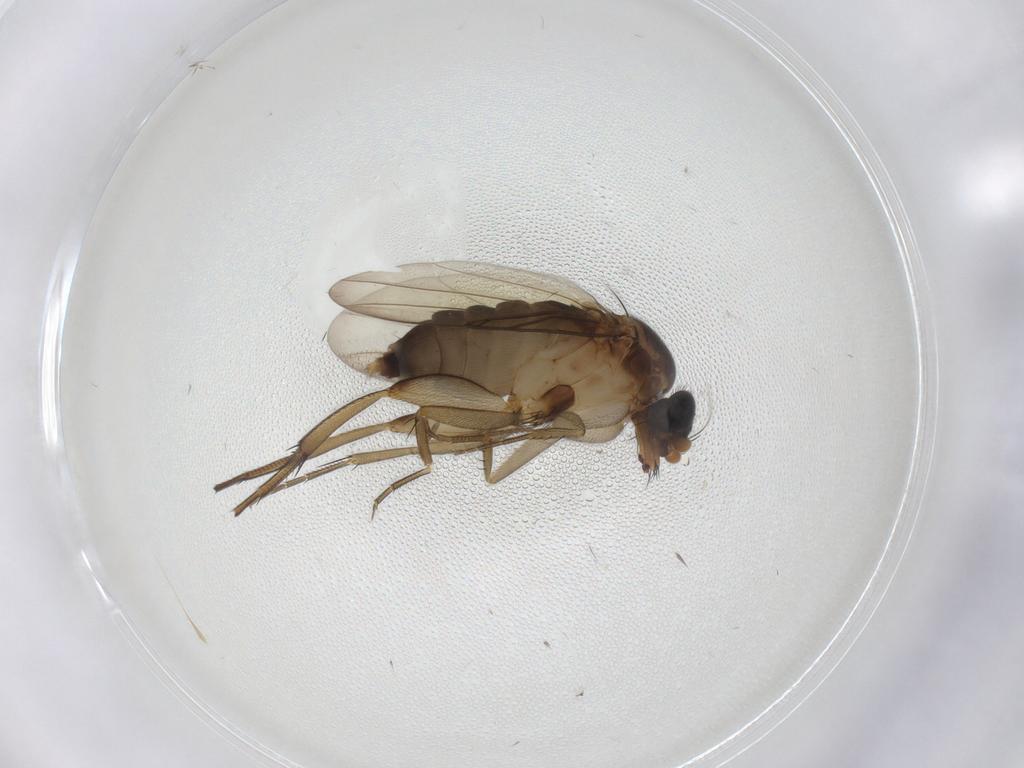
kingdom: Animalia
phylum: Arthropoda
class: Insecta
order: Diptera
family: Phoridae
